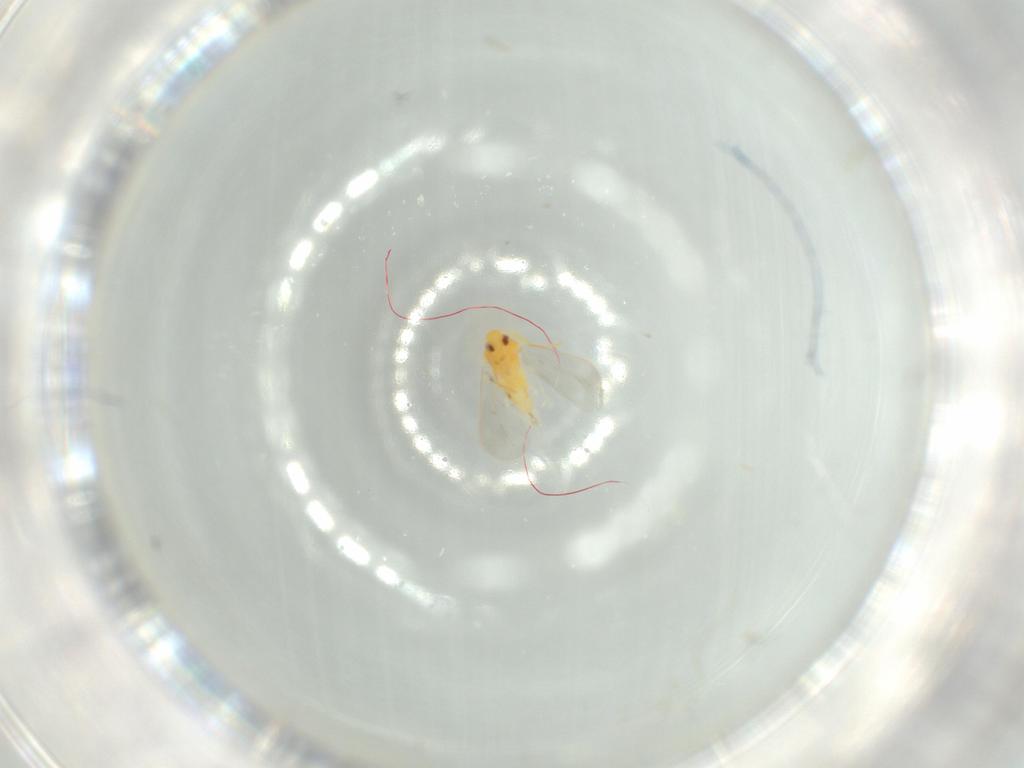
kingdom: Animalia
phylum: Arthropoda
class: Insecta
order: Hemiptera
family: Aleyrodidae
